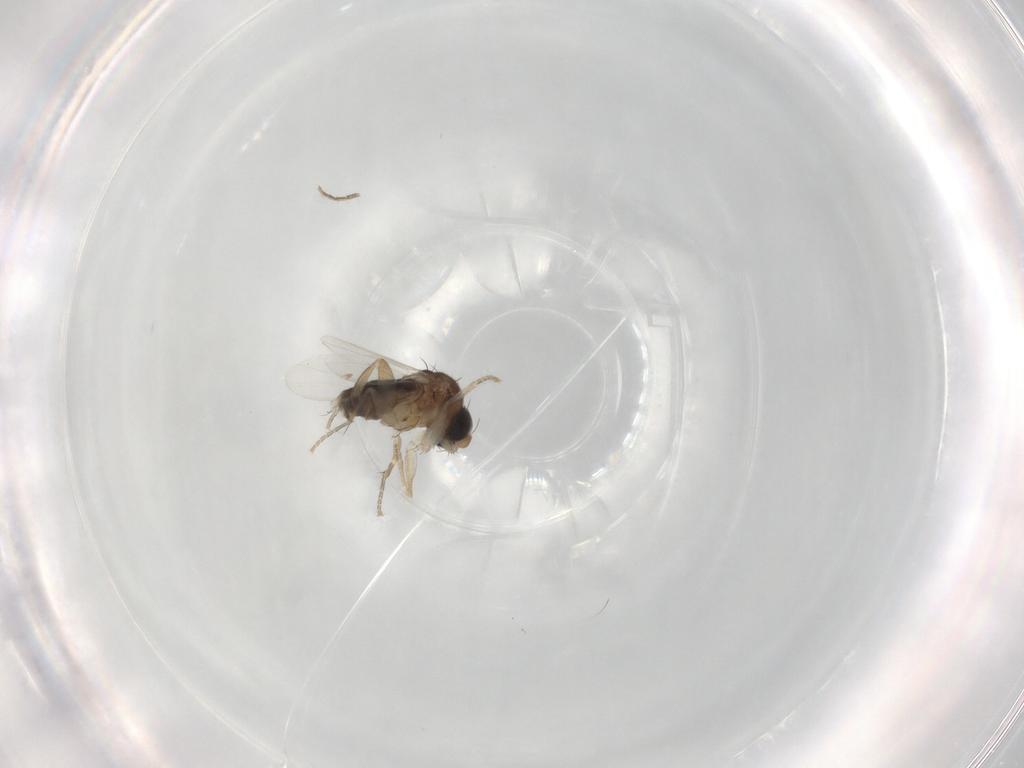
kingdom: Animalia
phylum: Arthropoda
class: Insecta
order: Diptera
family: Phoridae
